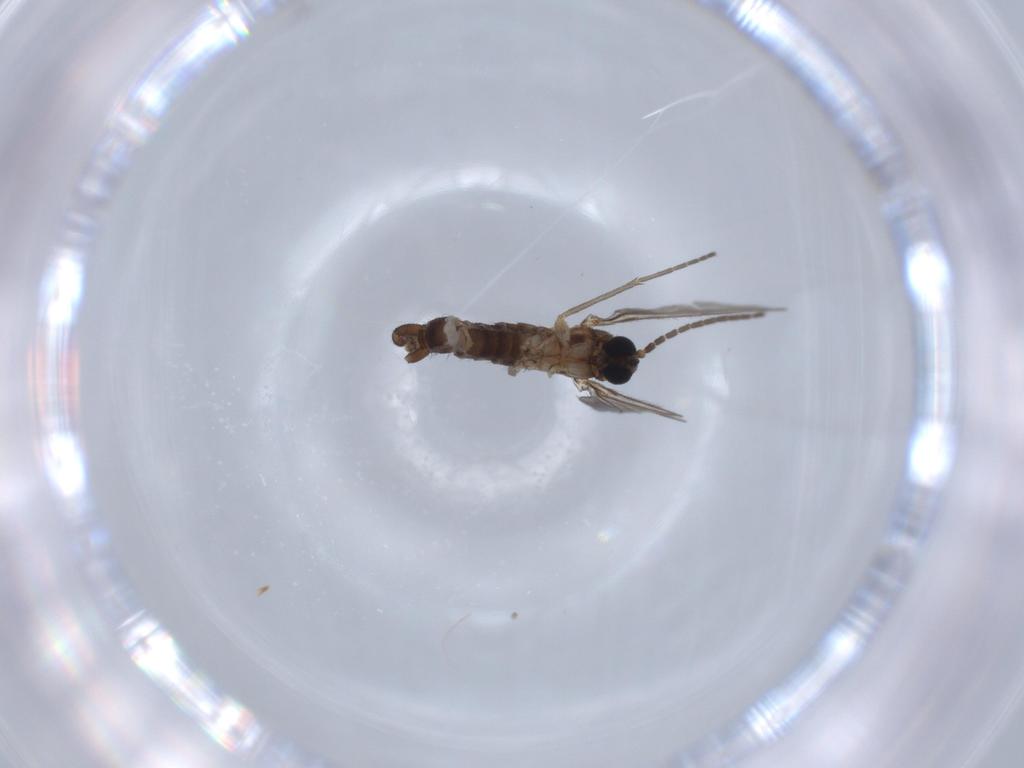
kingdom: Animalia
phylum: Arthropoda
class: Insecta
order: Diptera
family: Sciaridae
